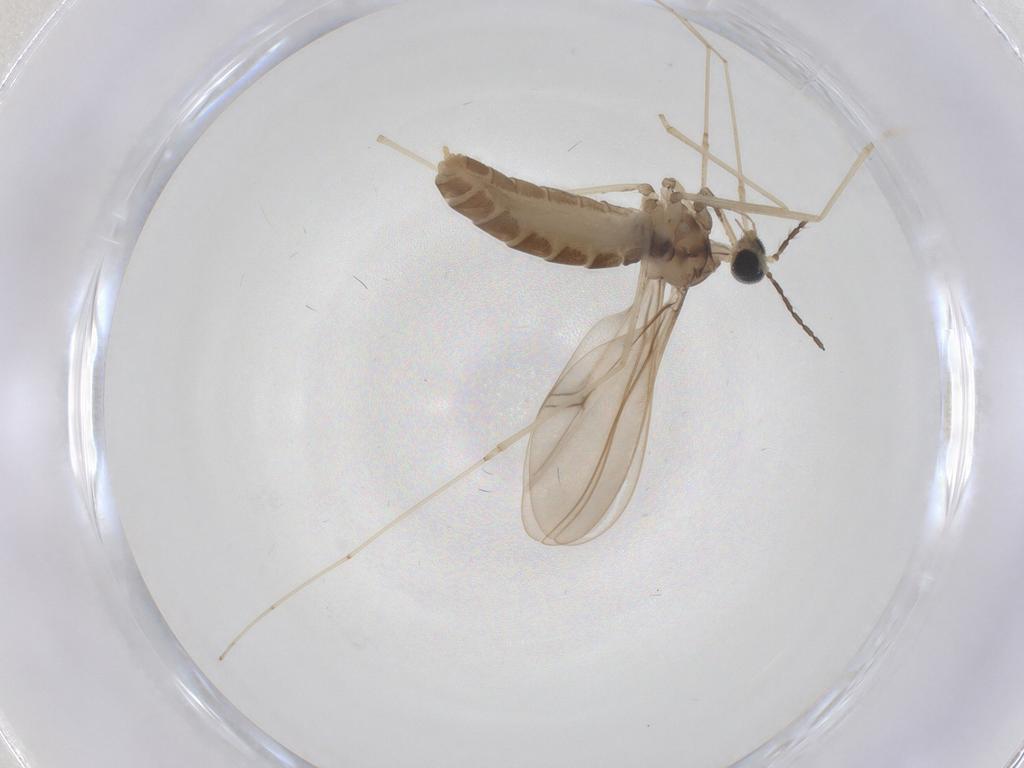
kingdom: Animalia
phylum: Arthropoda
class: Insecta
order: Diptera
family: Cecidomyiidae
